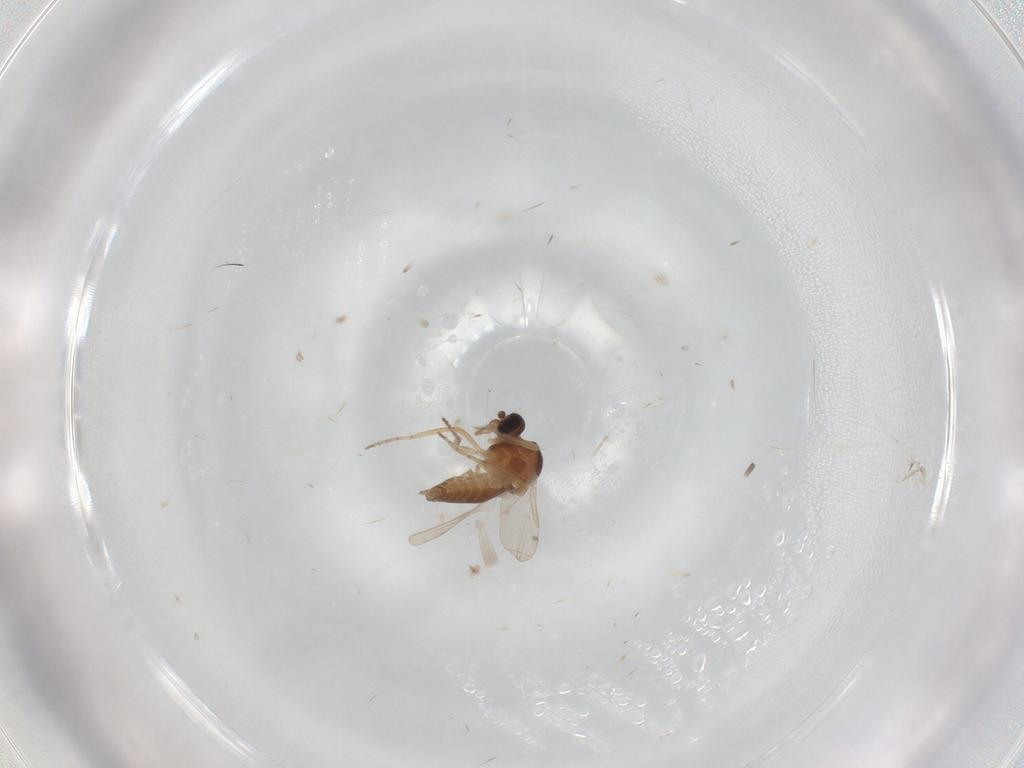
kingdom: Animalia
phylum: Arthropoda
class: Insecta
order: Diptera
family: Ceratopogonidae
